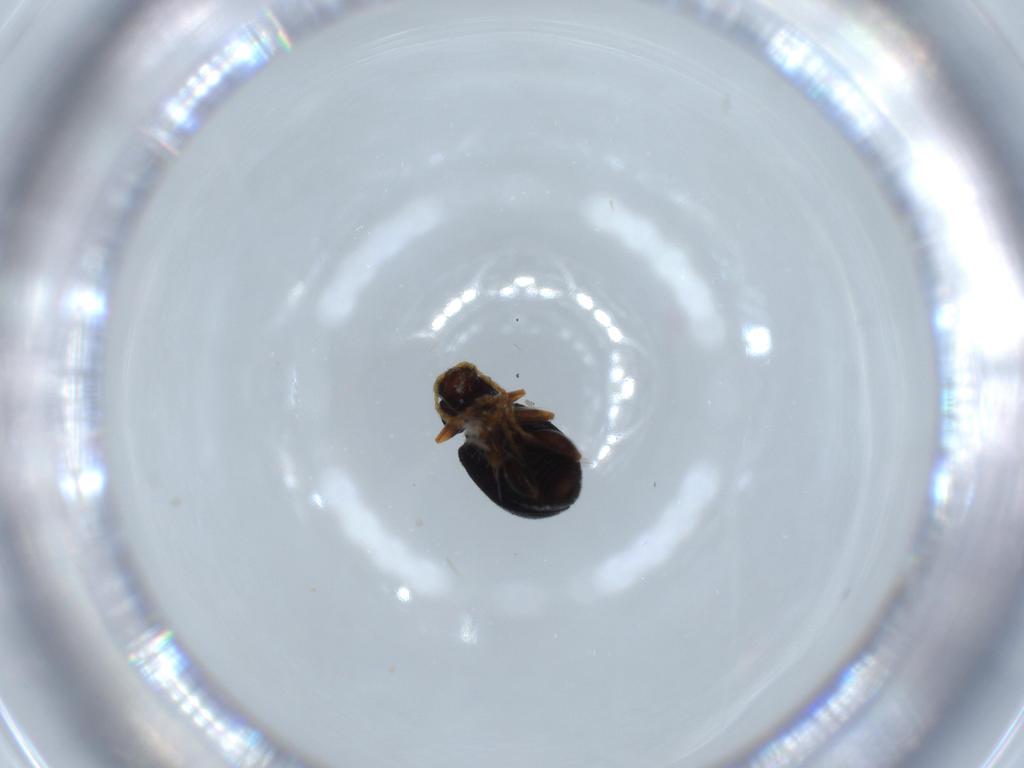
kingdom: Animalia
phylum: Arthropoda
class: Insecta
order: Coleoptera
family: Chrysomelidae
